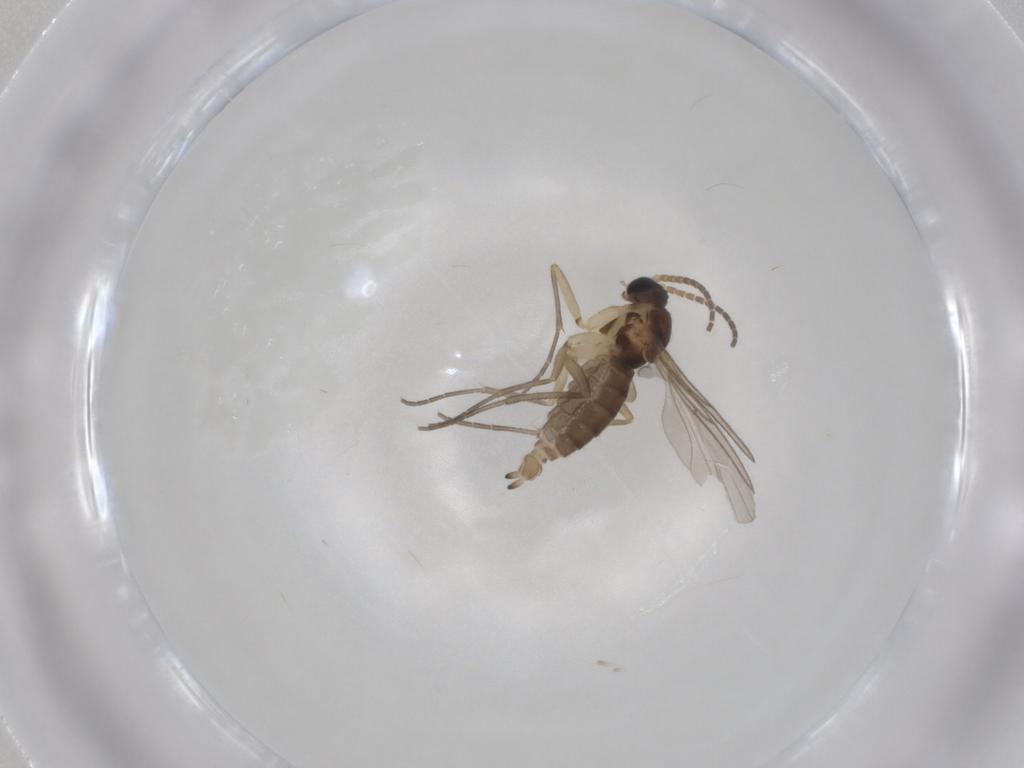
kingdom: Animalia
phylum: Arthropoda
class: Insecta
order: Diptera
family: Sciaridae
